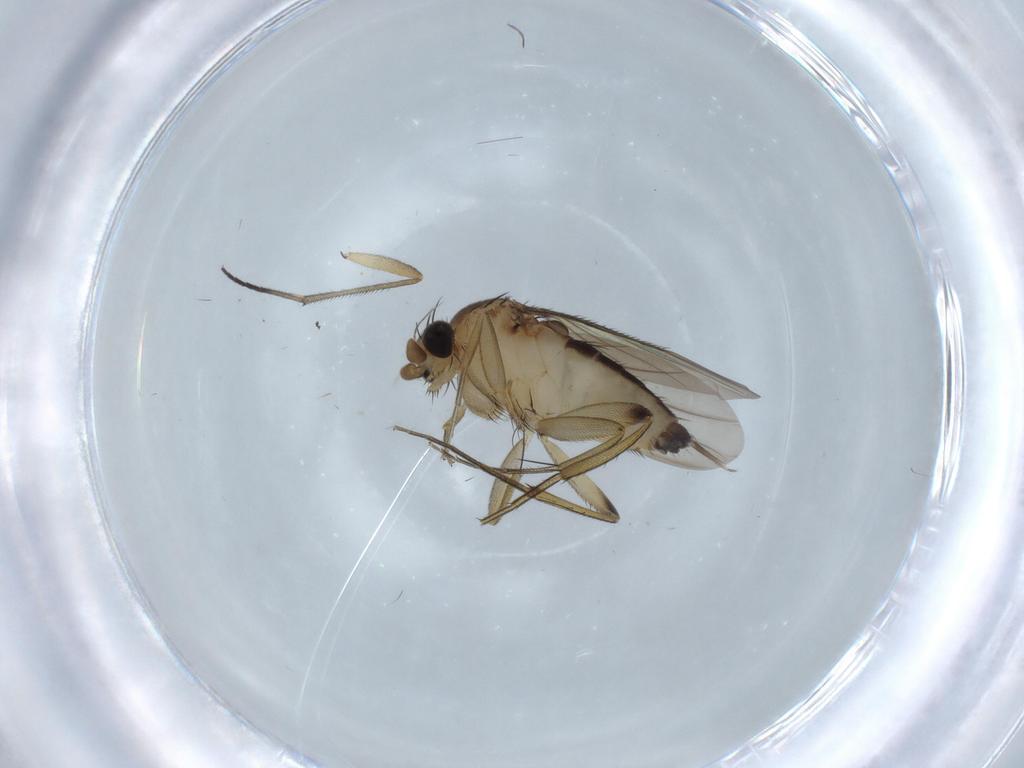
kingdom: Animalia
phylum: Arthropoda
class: Insecta
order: Diptera
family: Phoridae
